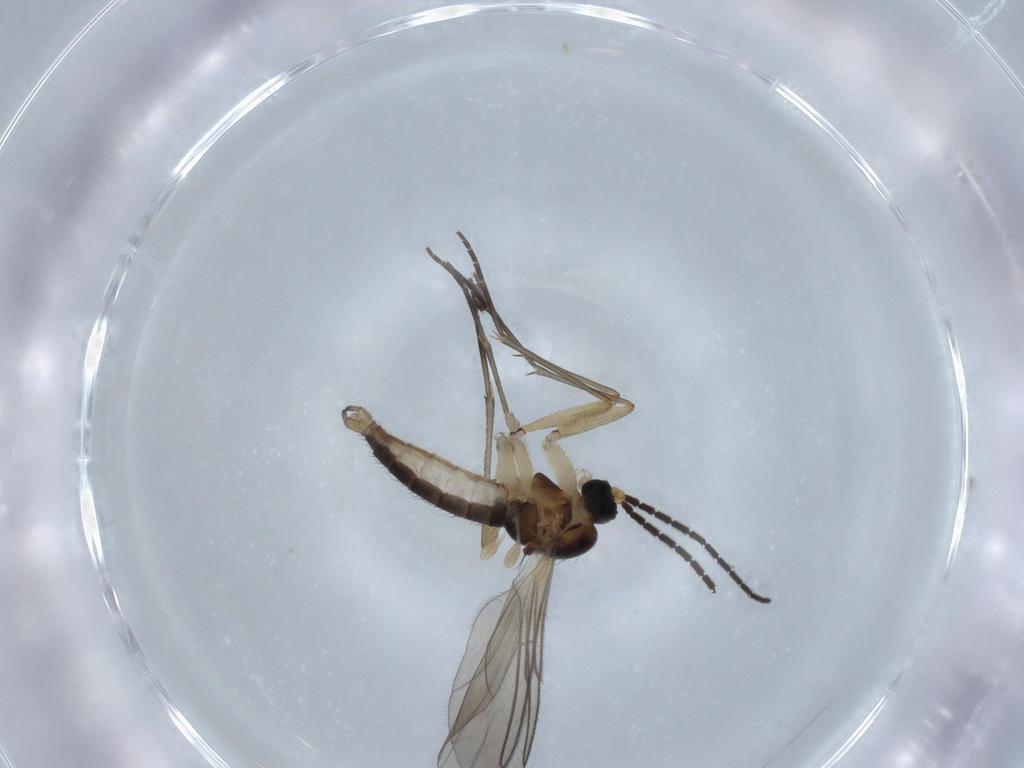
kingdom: Animalia
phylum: Arthropoda
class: Insecta
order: Diptera
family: Sciaridae
